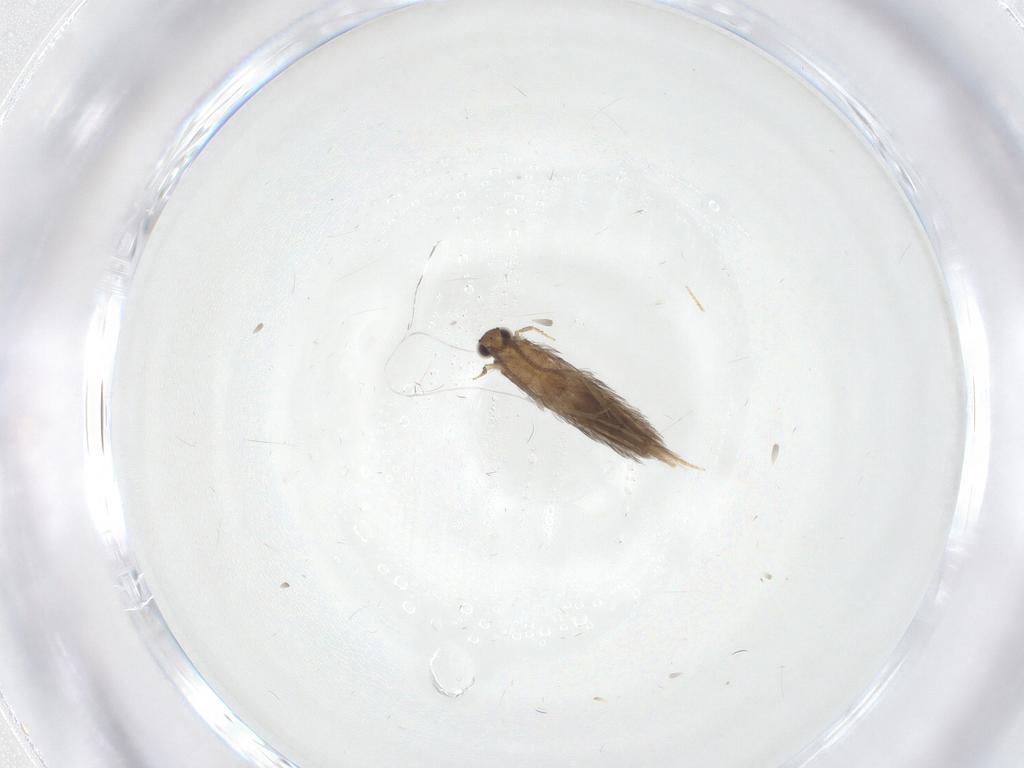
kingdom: Animalia
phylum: Arthropoda
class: Insecta
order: Trichoptera
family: Hydroptilidae
